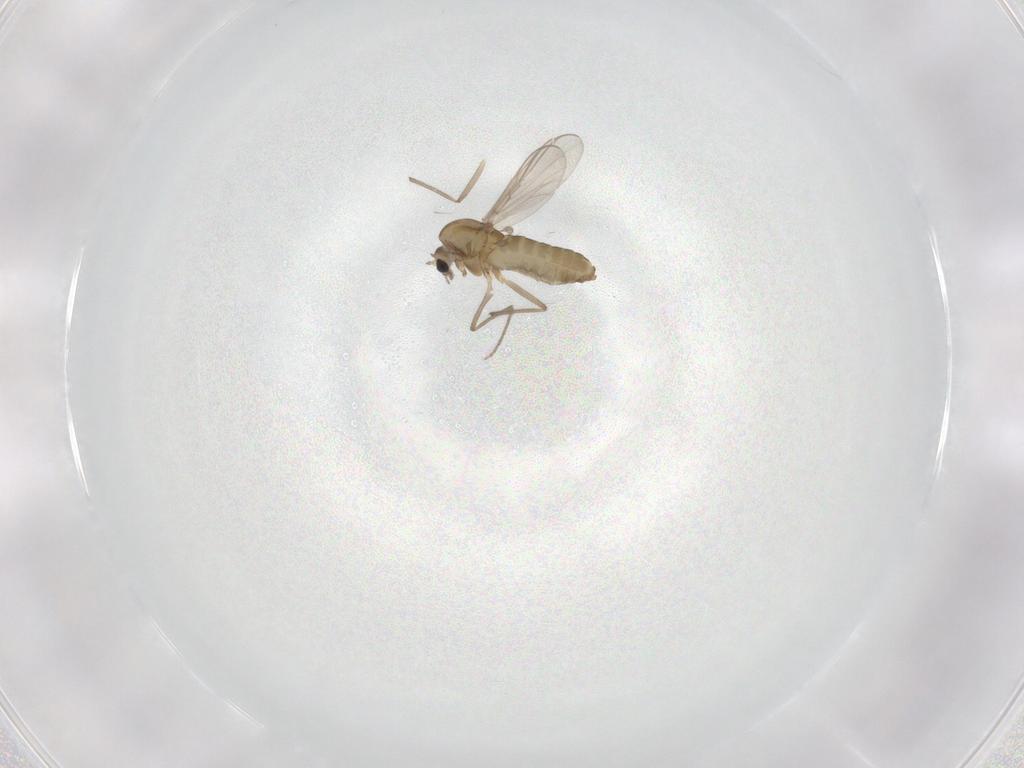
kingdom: Animalia
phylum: Arthropoda
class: Insecta
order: Diptera
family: Chironomidae
